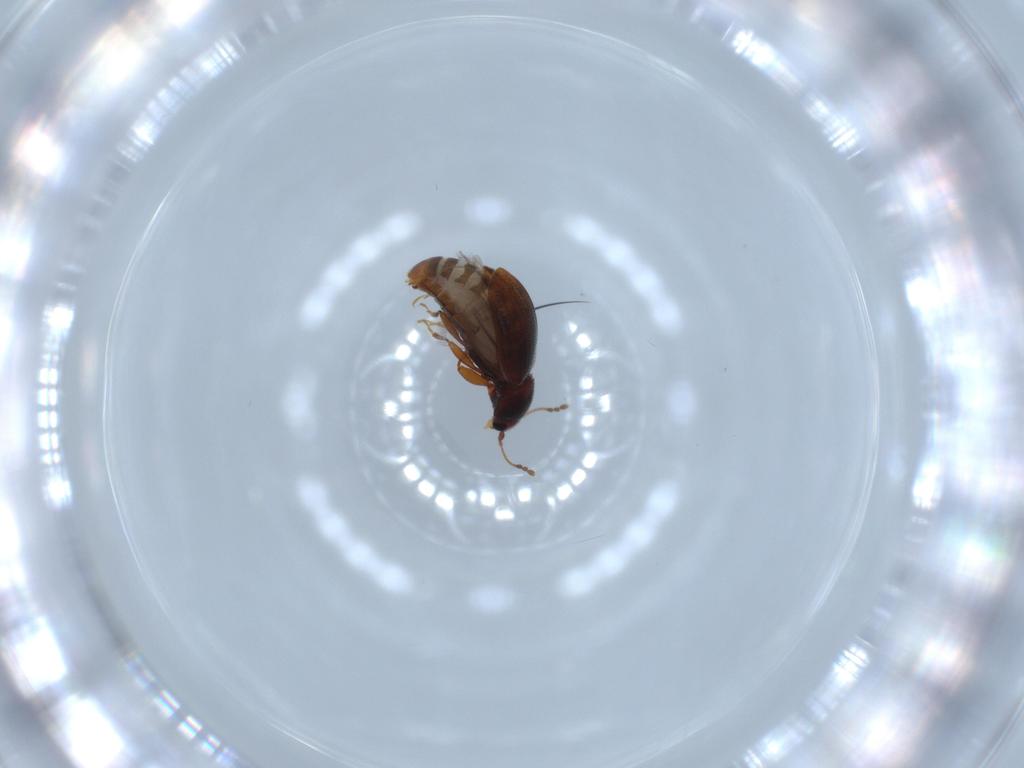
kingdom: Animalia
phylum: Arthropoda
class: Insecta
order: Coleoptera
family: Latridiidae
